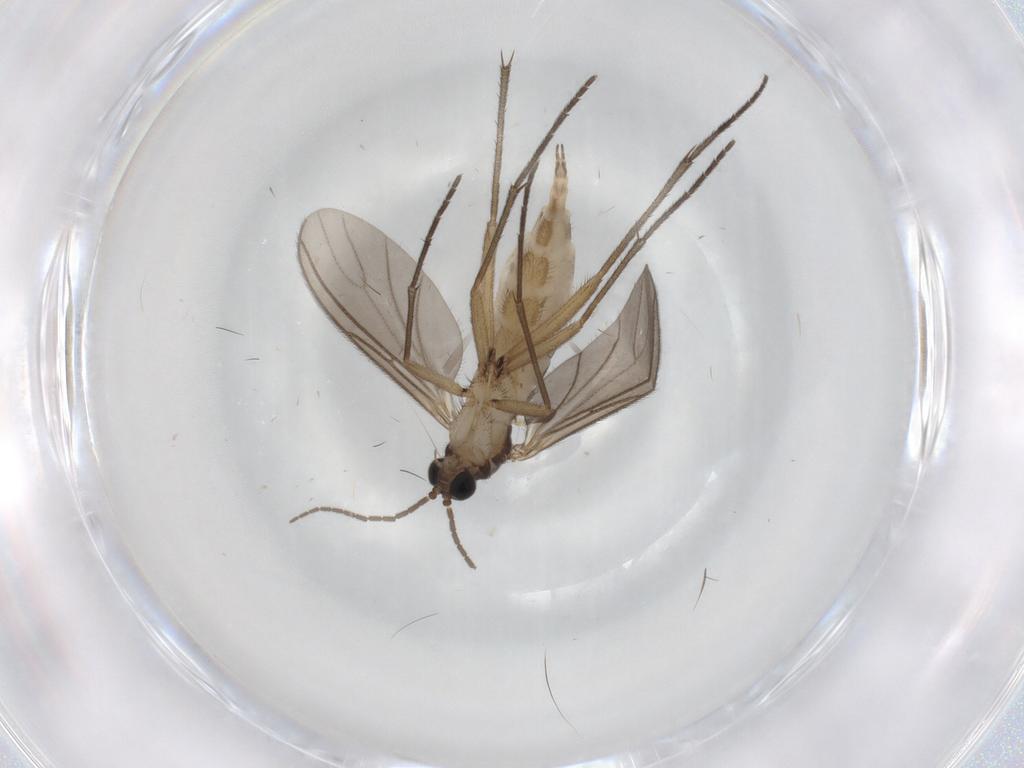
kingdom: Animalia
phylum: Arthropoda
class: Insecta
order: Diptera
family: Sciaridae
